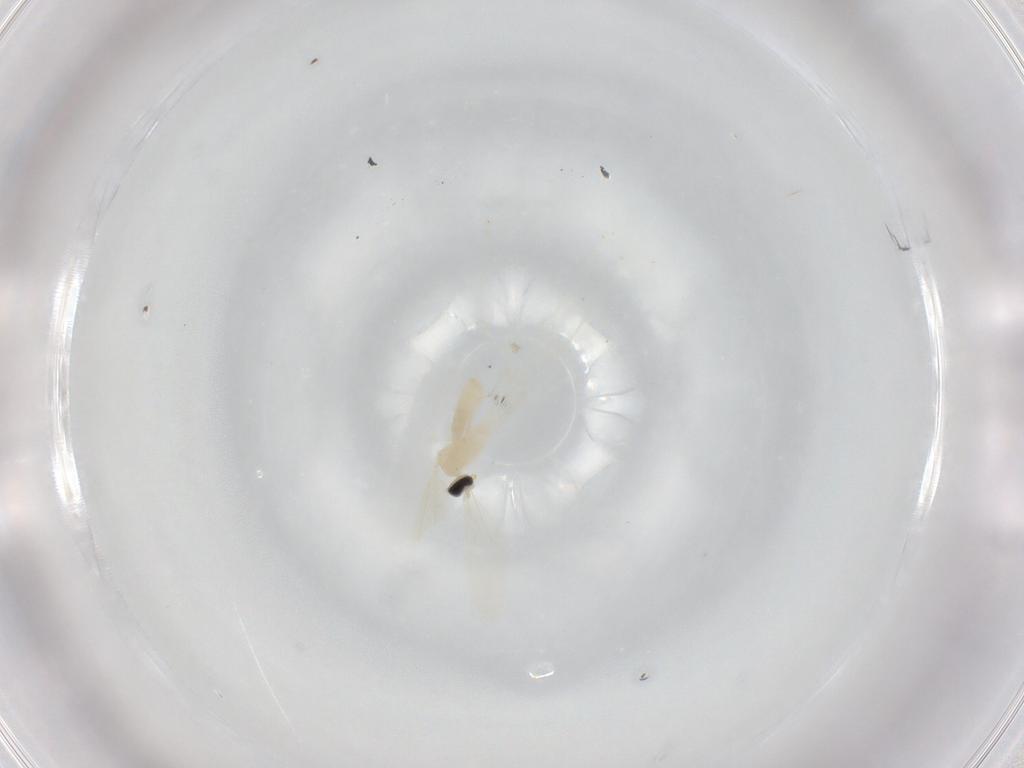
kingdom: Animalia
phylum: Arthropoda
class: Insecta
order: Diptera
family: Cecidomyiidae
